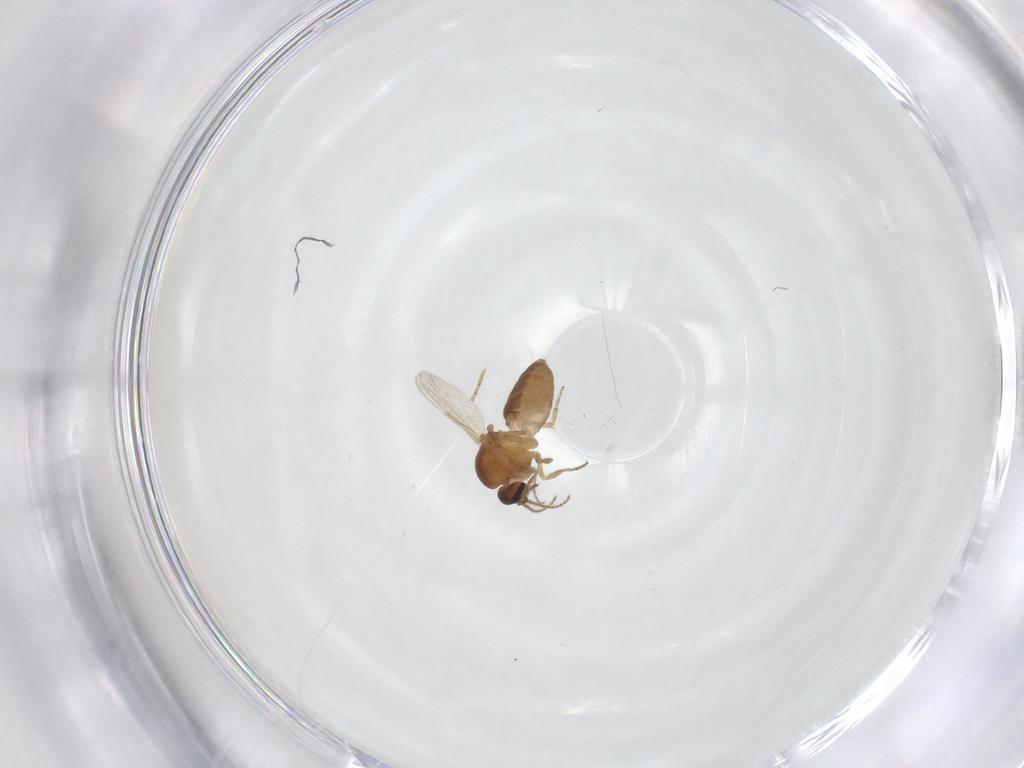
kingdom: Animalia
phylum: Arthropoda
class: Insecta
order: Diptera
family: Ceratopogonidae
